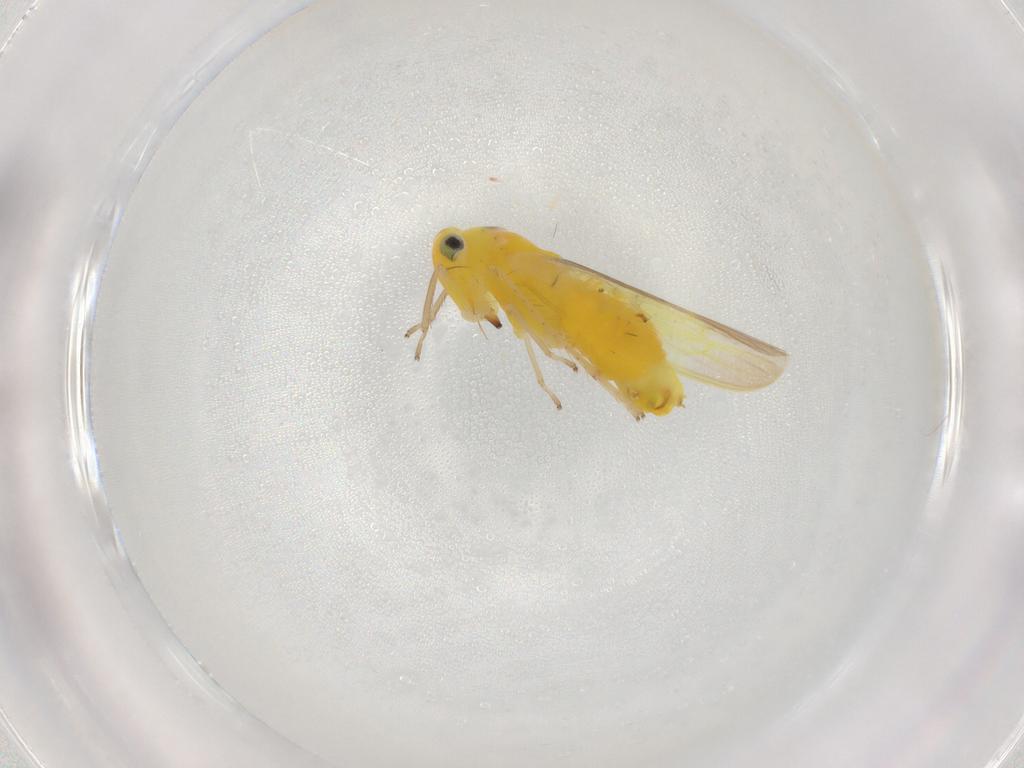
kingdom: Animalia
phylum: Arthropoda
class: Insecta
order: Hemiptera
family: Cicadellidae
